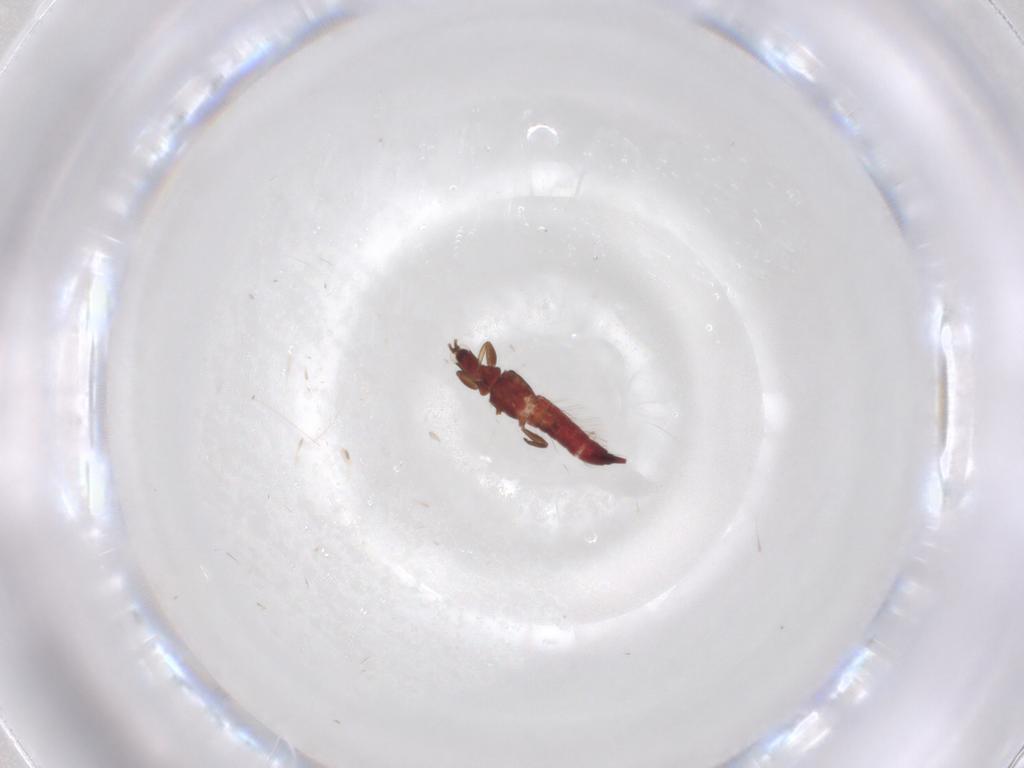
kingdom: Animalia
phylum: Arthropoda
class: Insecta
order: Thysanoptera
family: Phlaeothripidae
